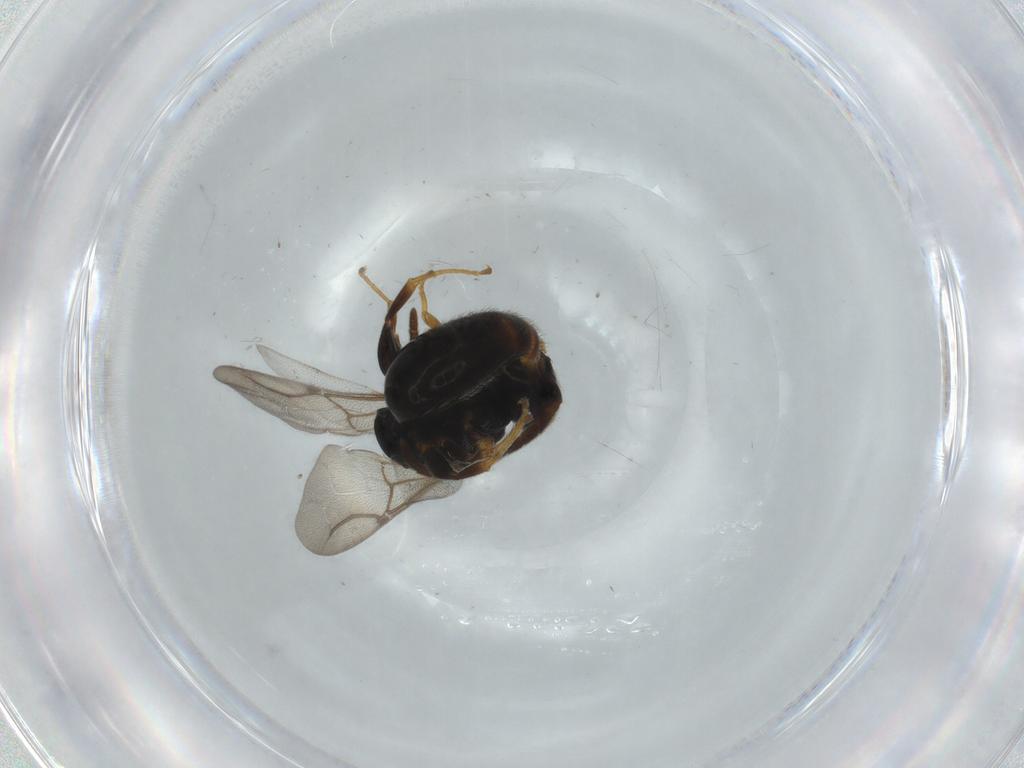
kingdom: Animalia
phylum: Arthropoda
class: Insecta
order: Hymenoptera
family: Bethylidae
